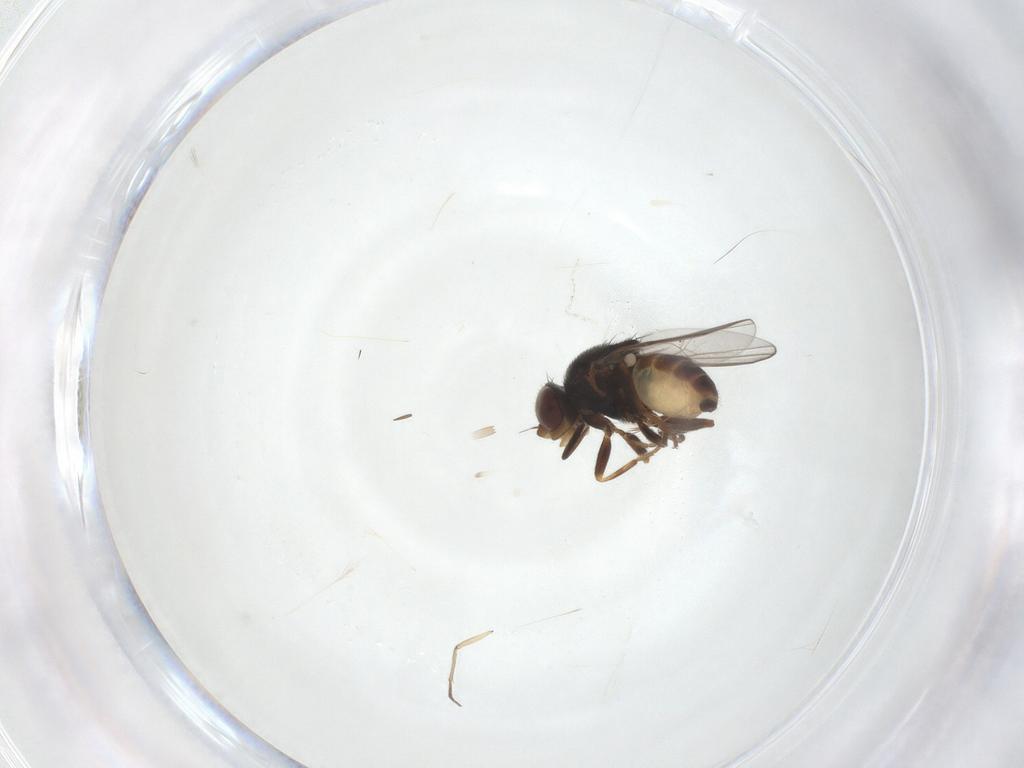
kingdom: Animalia
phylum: Arthropoda
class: Insecta
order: Diptera
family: Chloropidae
